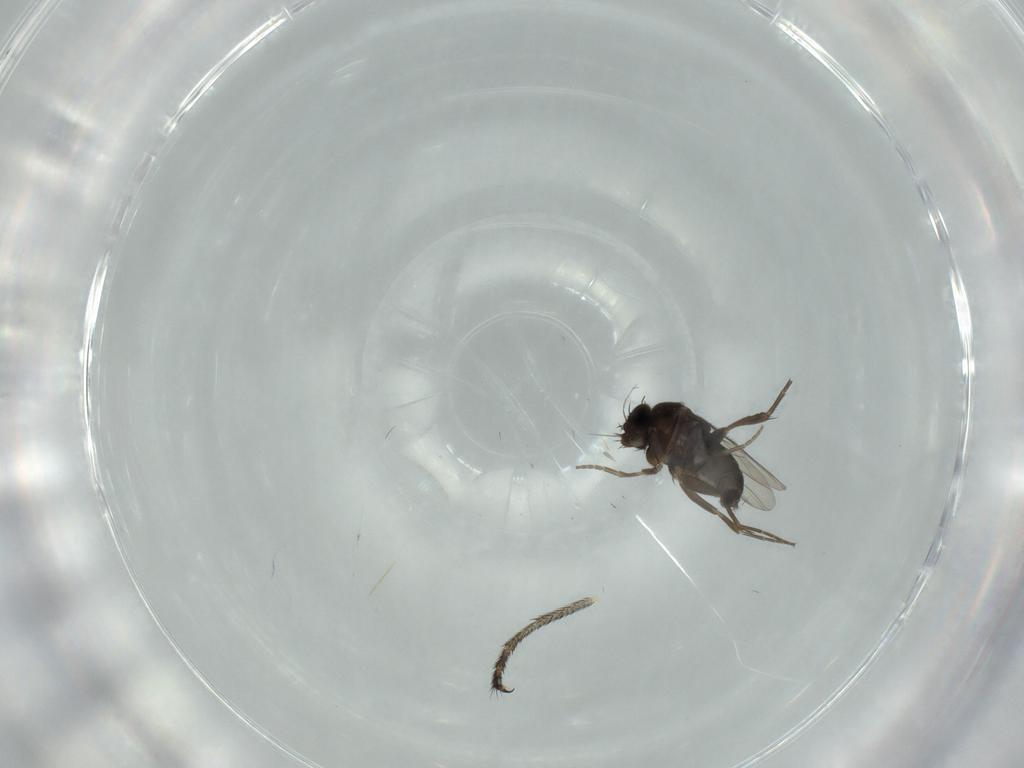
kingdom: Animalia
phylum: Arthropoda
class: Insecta
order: Diptera
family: Phoridae
